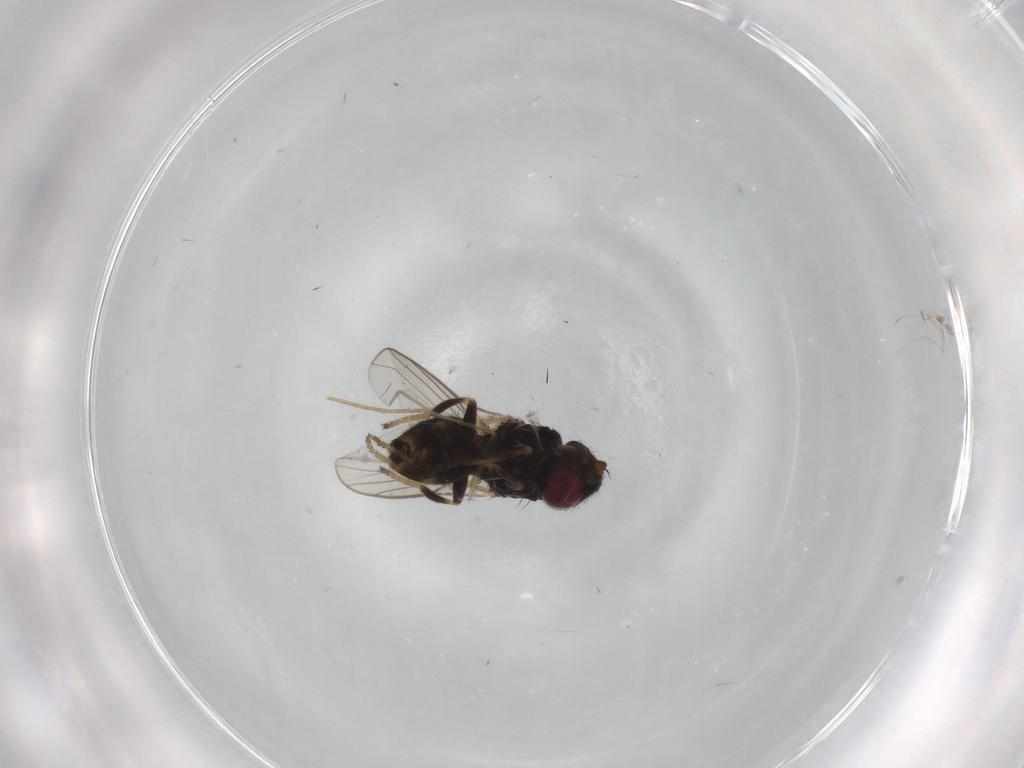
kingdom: Animalia
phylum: Arthropoda
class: Insecta
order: Diptera
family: Chloropidae
